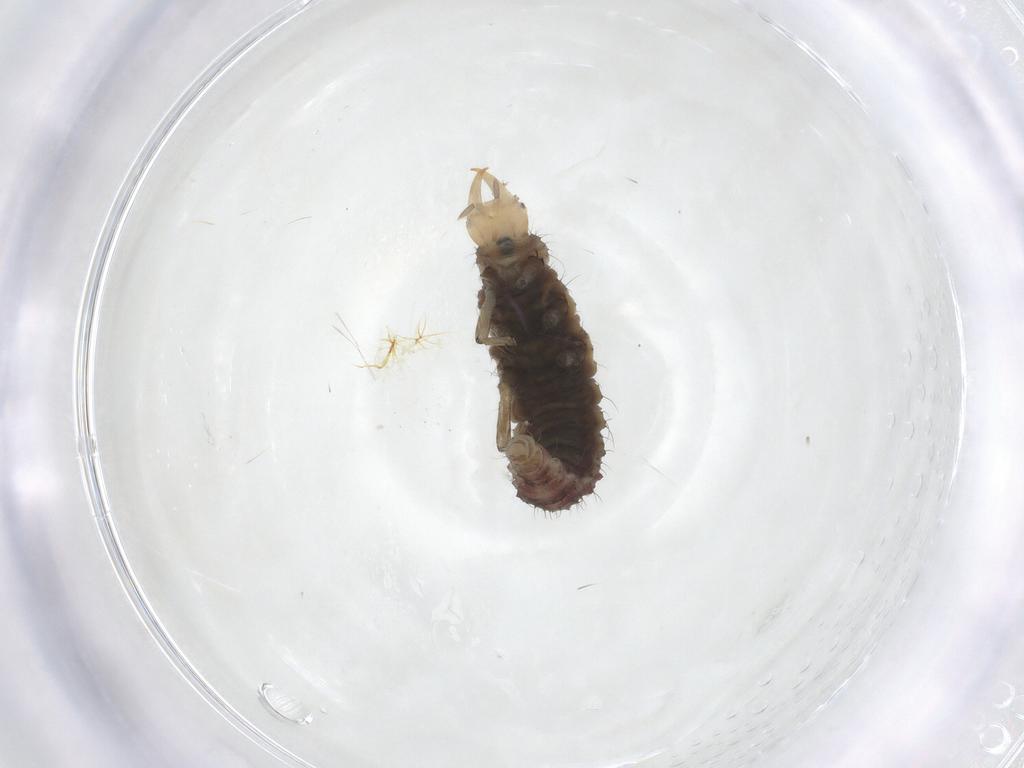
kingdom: Animalia
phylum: Arthropoda
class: Insecta
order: Neuroptera
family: Hemerobiidae
